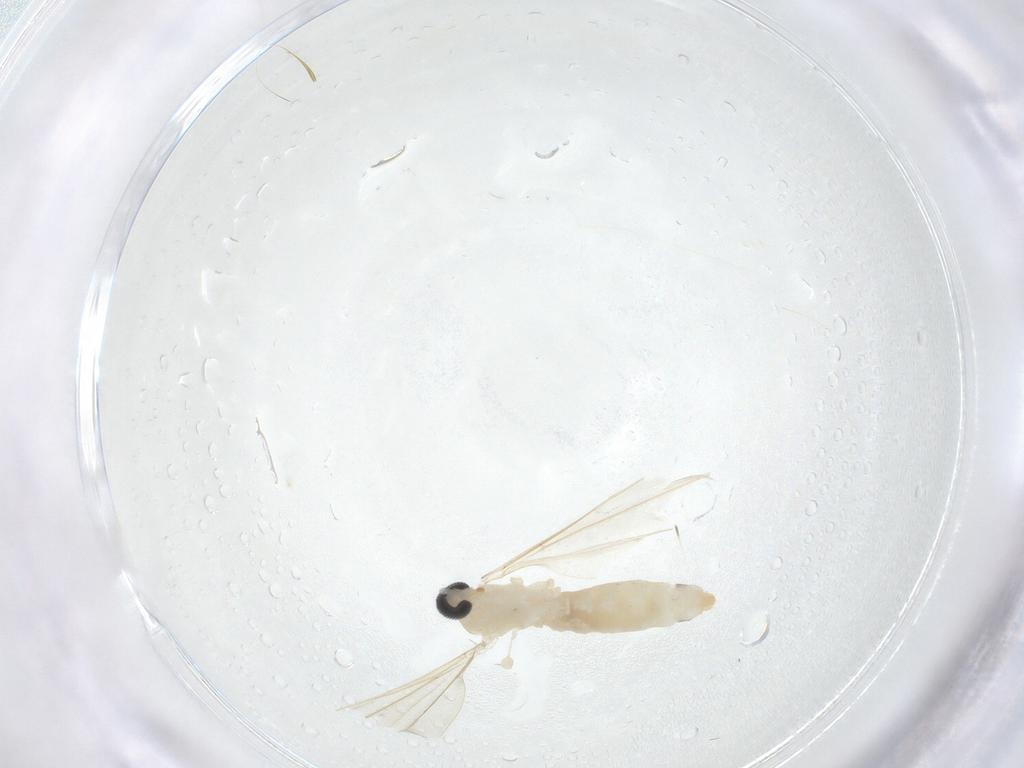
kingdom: Animalia
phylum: Arthropoda
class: Insecta
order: Diptera
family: Cecidomyiidae
